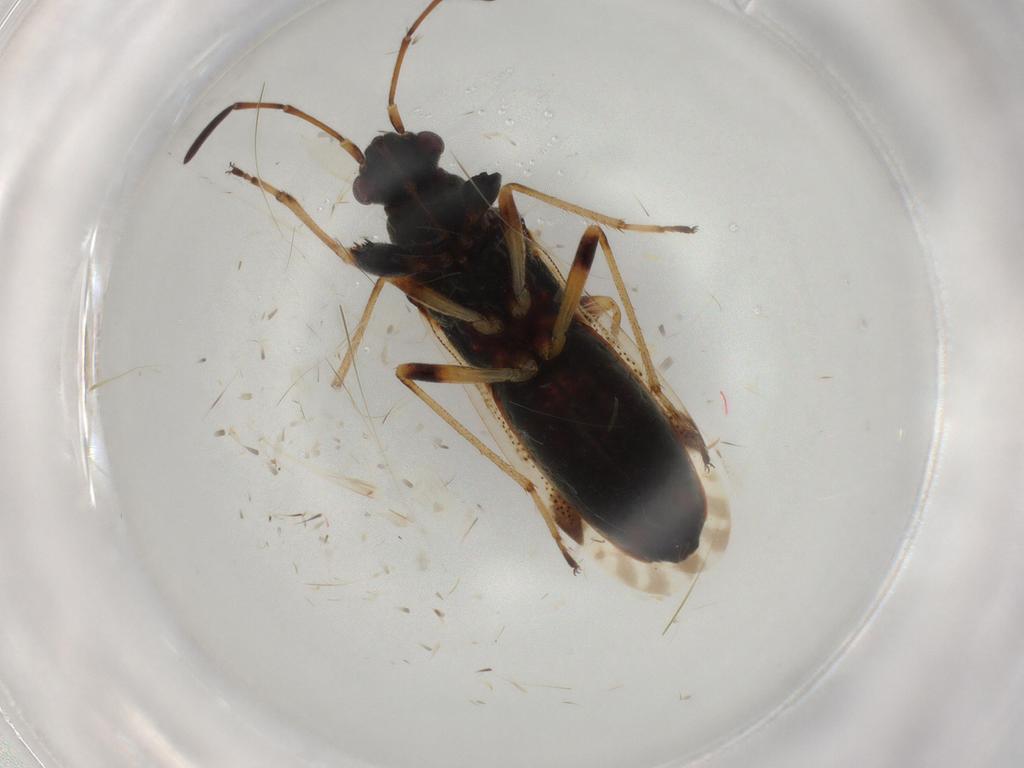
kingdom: Animalia
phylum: Arthropoda
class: Insecta
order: Hemiptera
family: Rhyparochromidae
